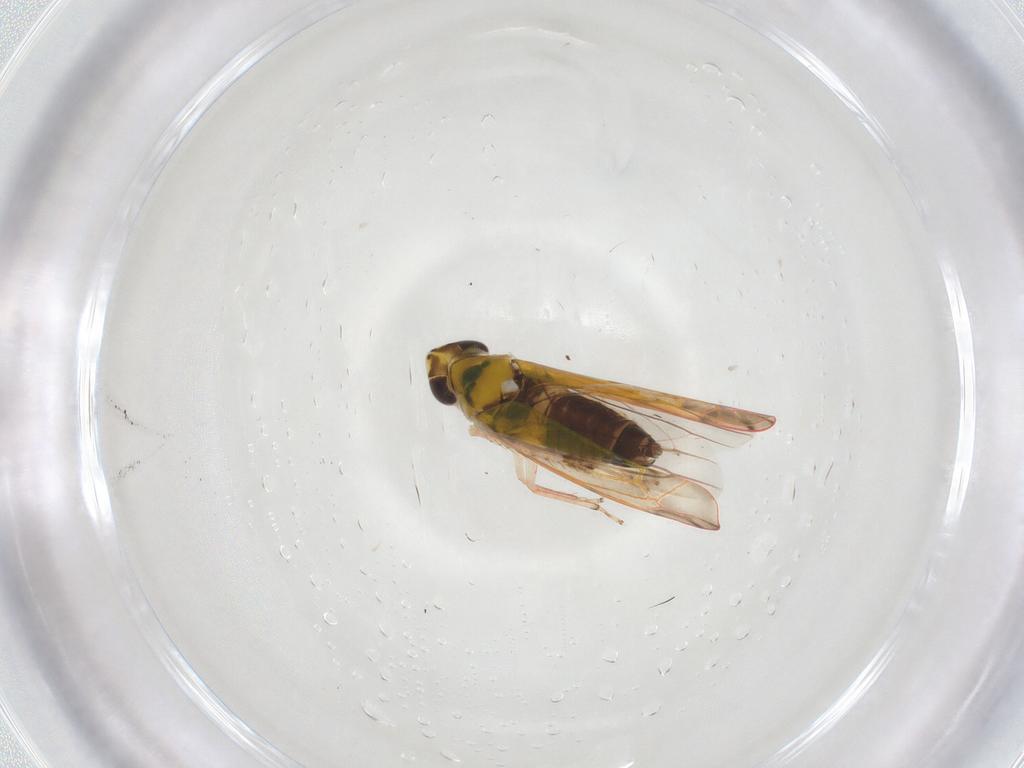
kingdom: Animalia
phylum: Arthropoda
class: Insecta
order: Hemiptera
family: Cicadellidae
